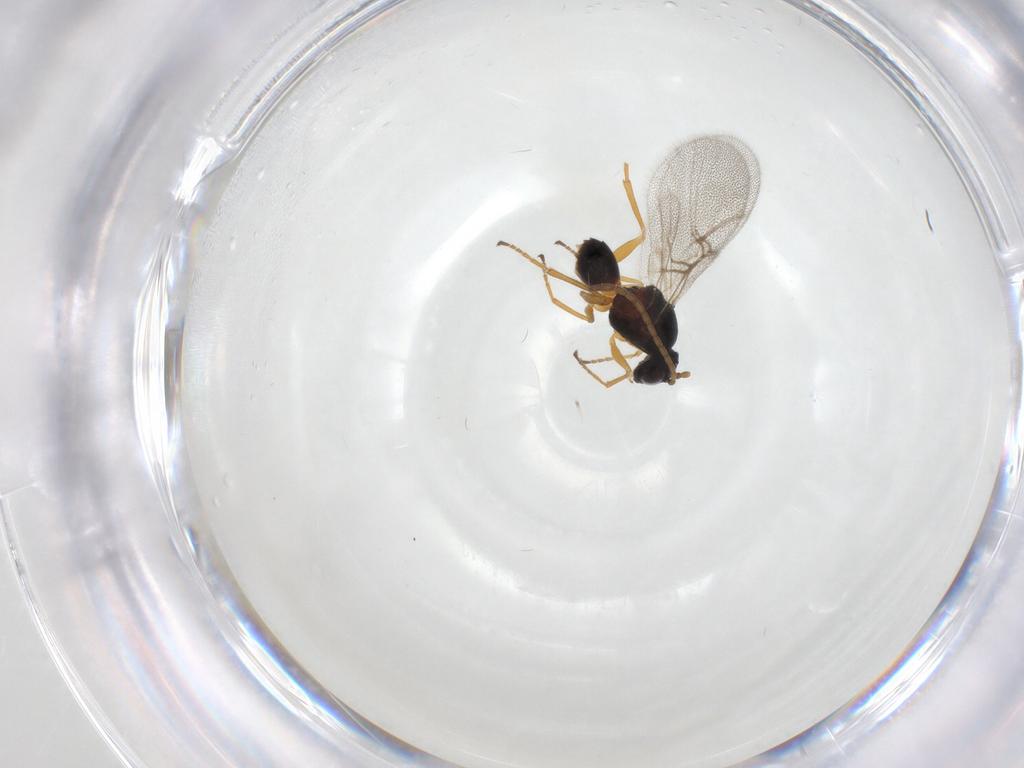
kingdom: Animalia
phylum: Arthropoda
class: Insecta
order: Hymenoptera
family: Cynipidae
